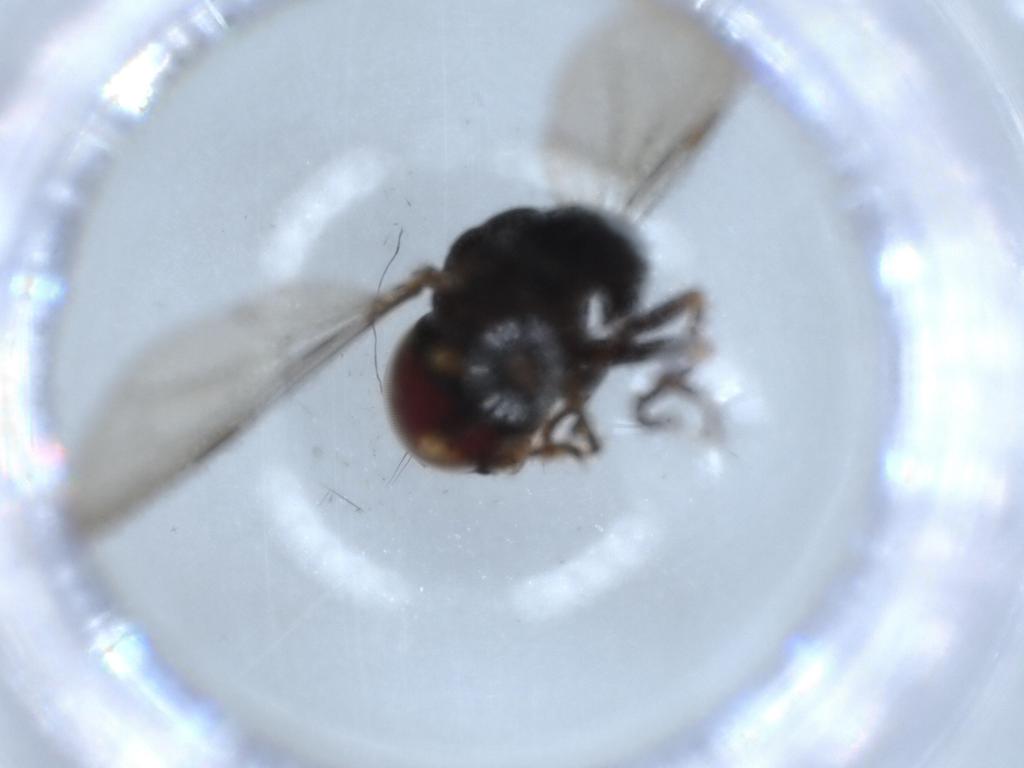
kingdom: Animalia
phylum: Arthropoda
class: Insecta
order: Diptera
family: Pipunculidae
